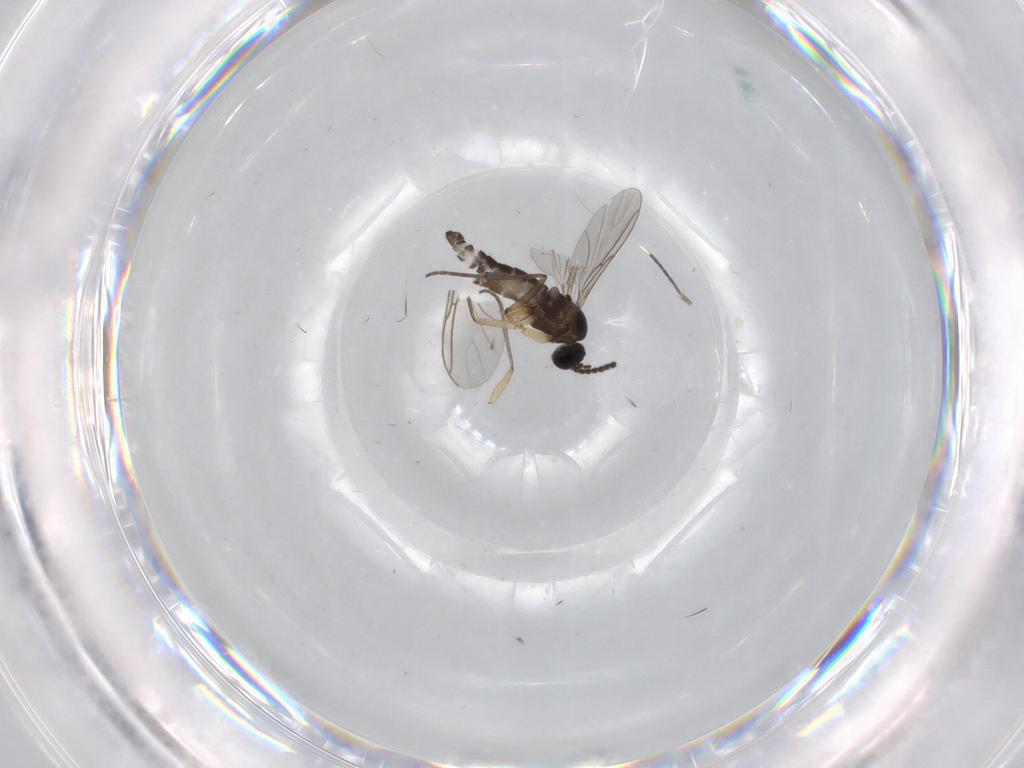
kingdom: Animalia
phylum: Arthropoda
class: Insecta
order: Diptera
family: Sciaridae
